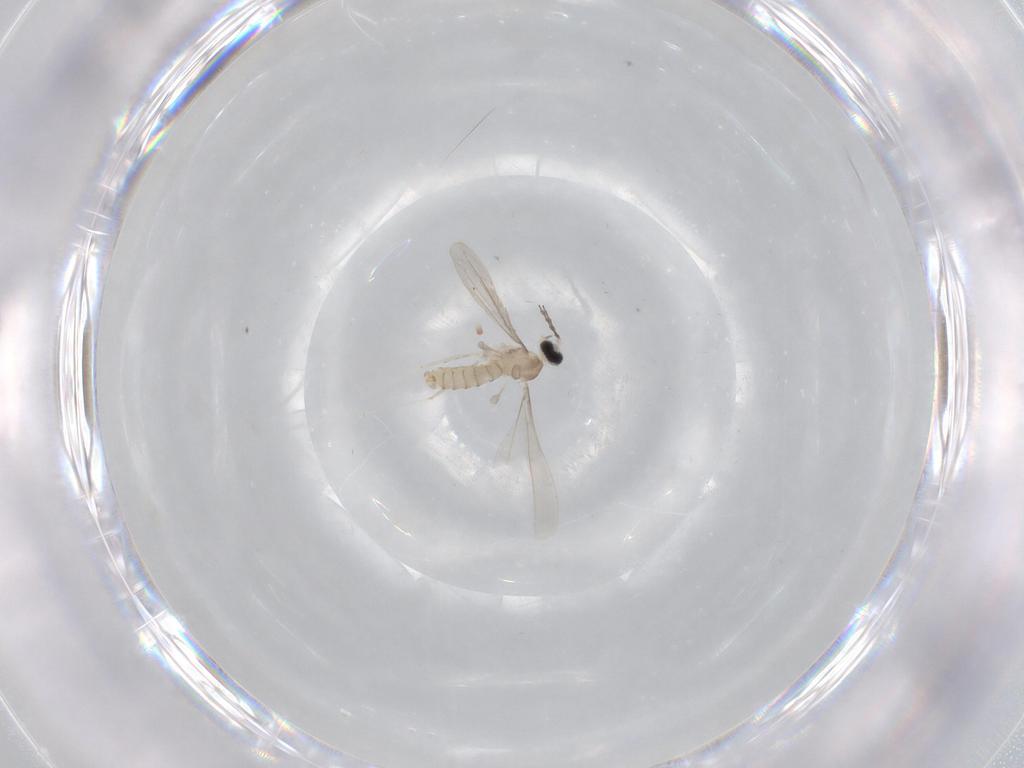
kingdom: Animalia
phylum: Arthropoda
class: Insecta
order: Diptera
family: Cecidomyiidae
